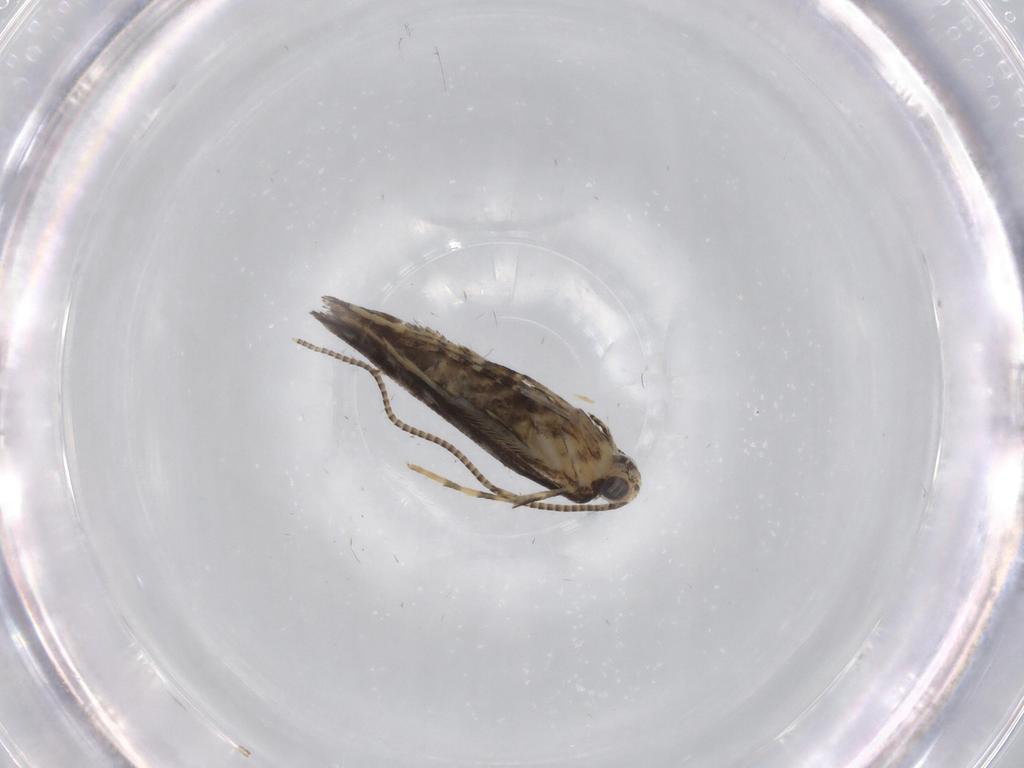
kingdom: Animalia
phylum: Arthropoda
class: Insecta
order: Lepidoptera
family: Gracillariidae
